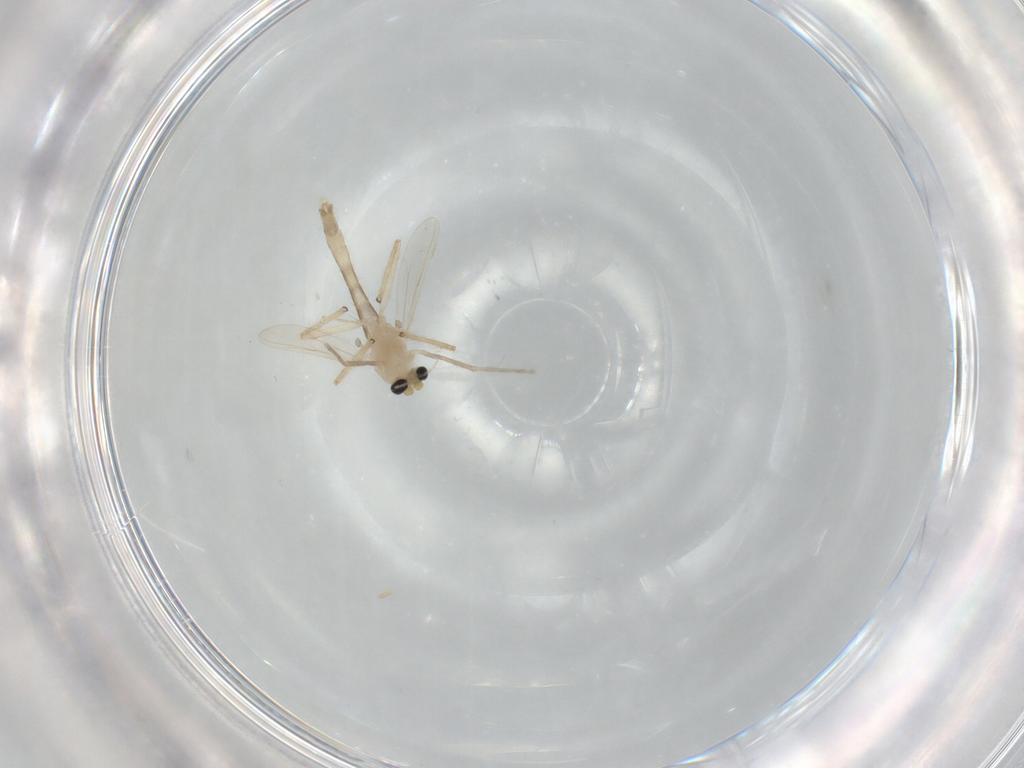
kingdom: Animalia
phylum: Arthropoda
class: Insecta
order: Diptera
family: Chironomidae
